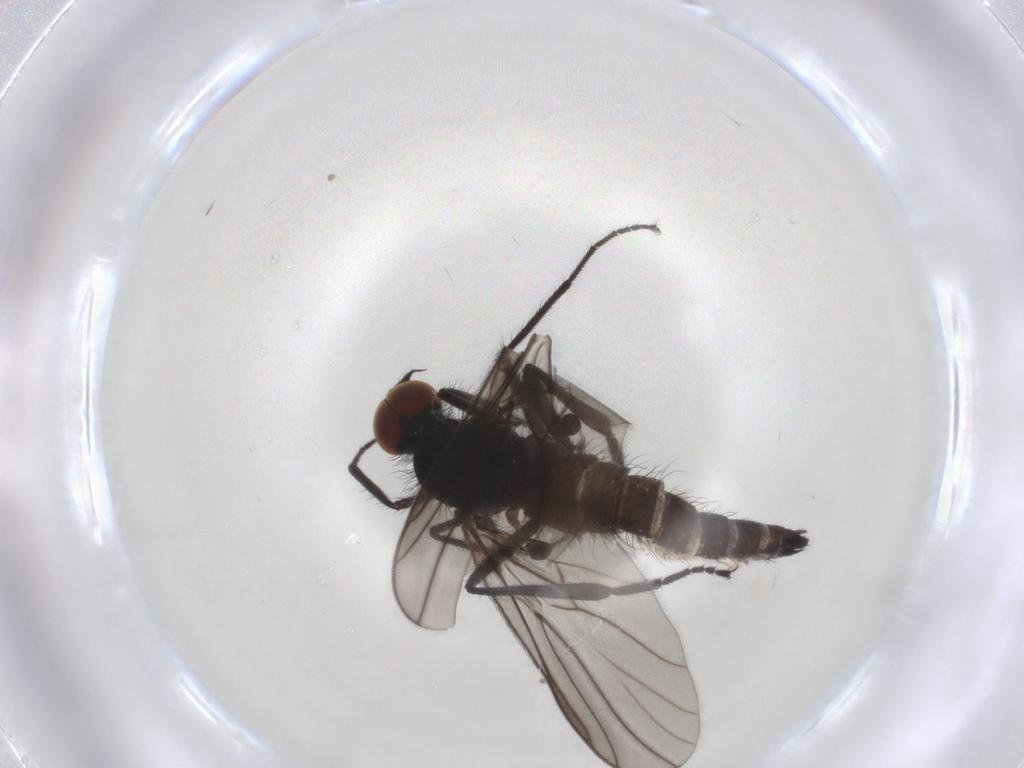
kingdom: Animalia
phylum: Arthropoda
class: Insecta
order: Diptera
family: Hybotidae
